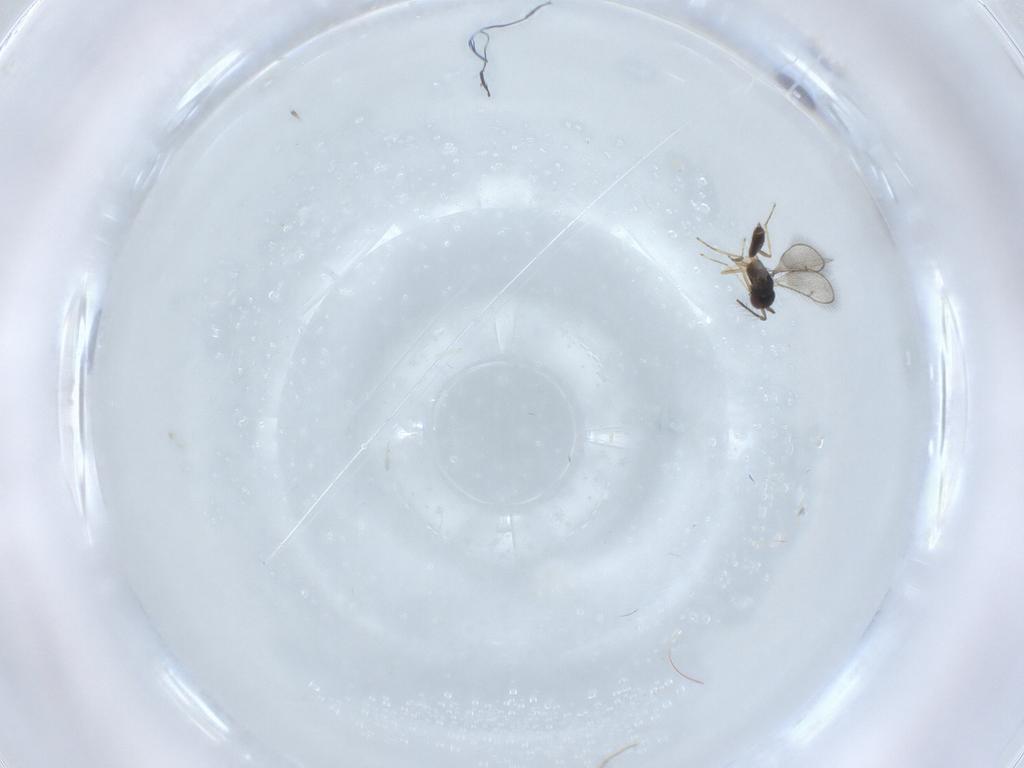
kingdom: Animalia
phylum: Arthropoda
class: Insecta
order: Hymenoptera
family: Eulophidae
